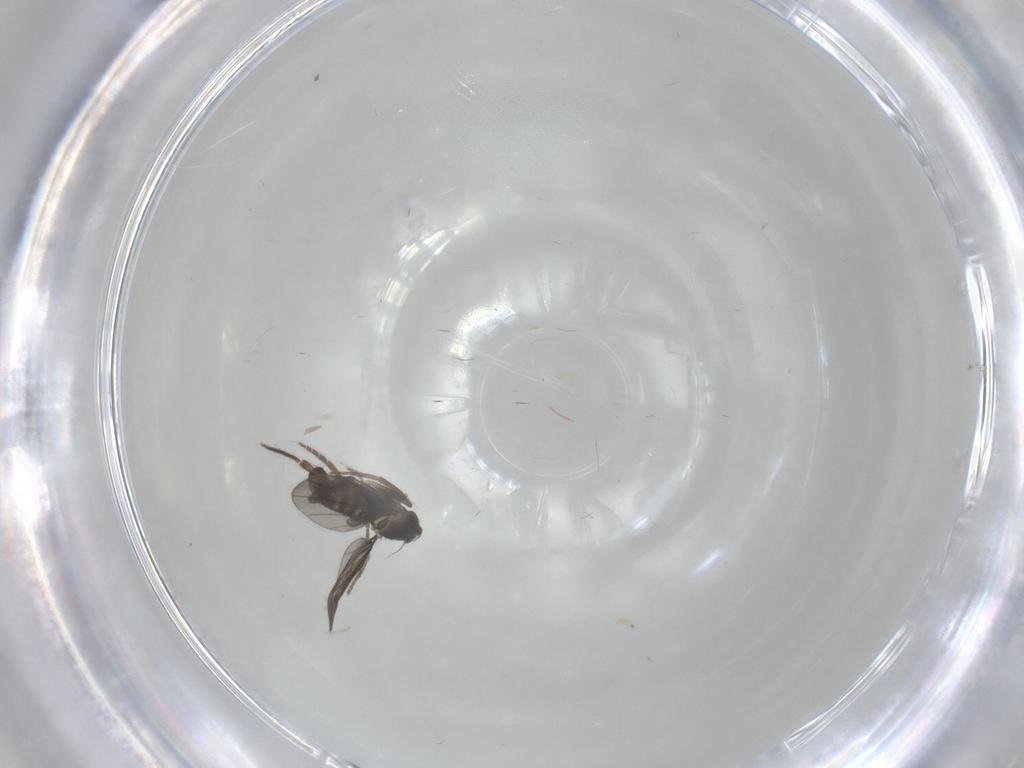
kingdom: Animalia
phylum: Arthropoda
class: Insecta
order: Diptera
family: Phoridae
